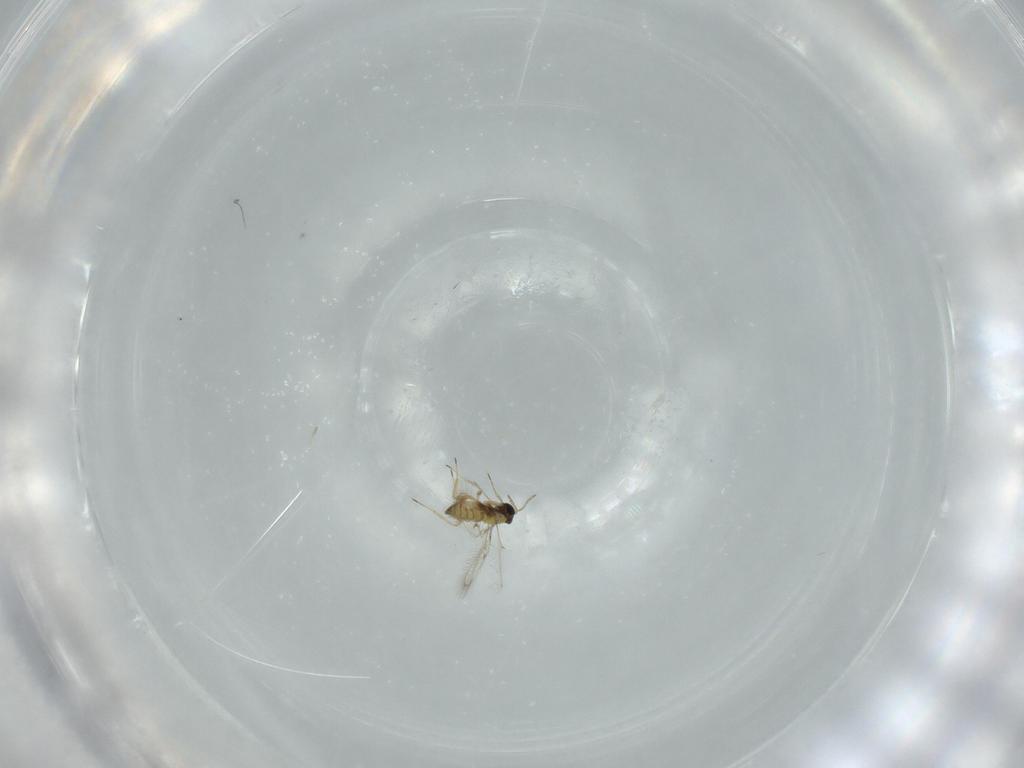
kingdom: Animalia
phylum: Arthropoda
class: Insecta
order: Hymenoptera
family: Trichogrammatidae
